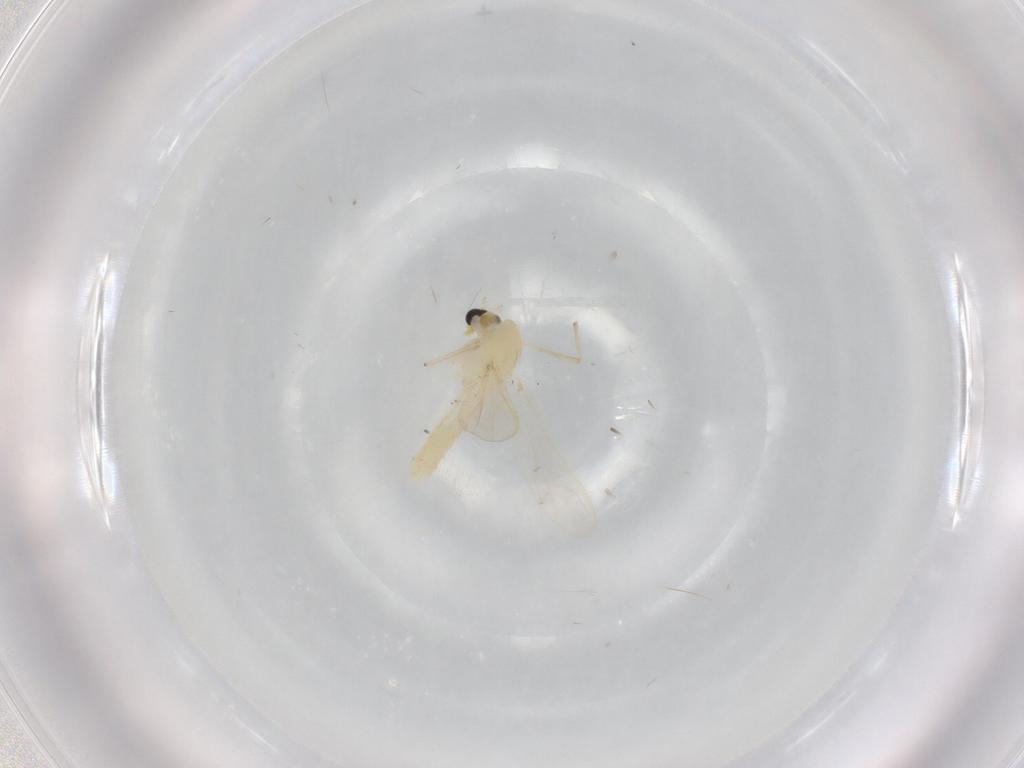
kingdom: Animalia
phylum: Arthropoda
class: Insecta
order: Diptera
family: Chironomidae
